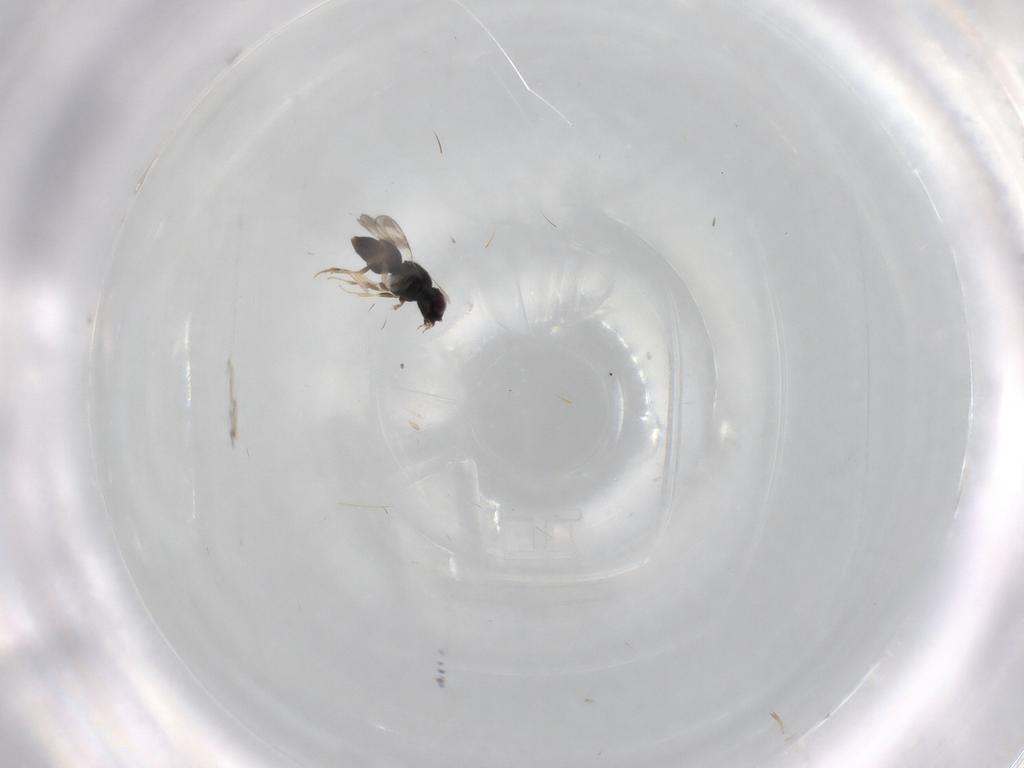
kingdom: Animalia
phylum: Arthropoda
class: Insecta
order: Hymenoptera
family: Ceraphronidae
